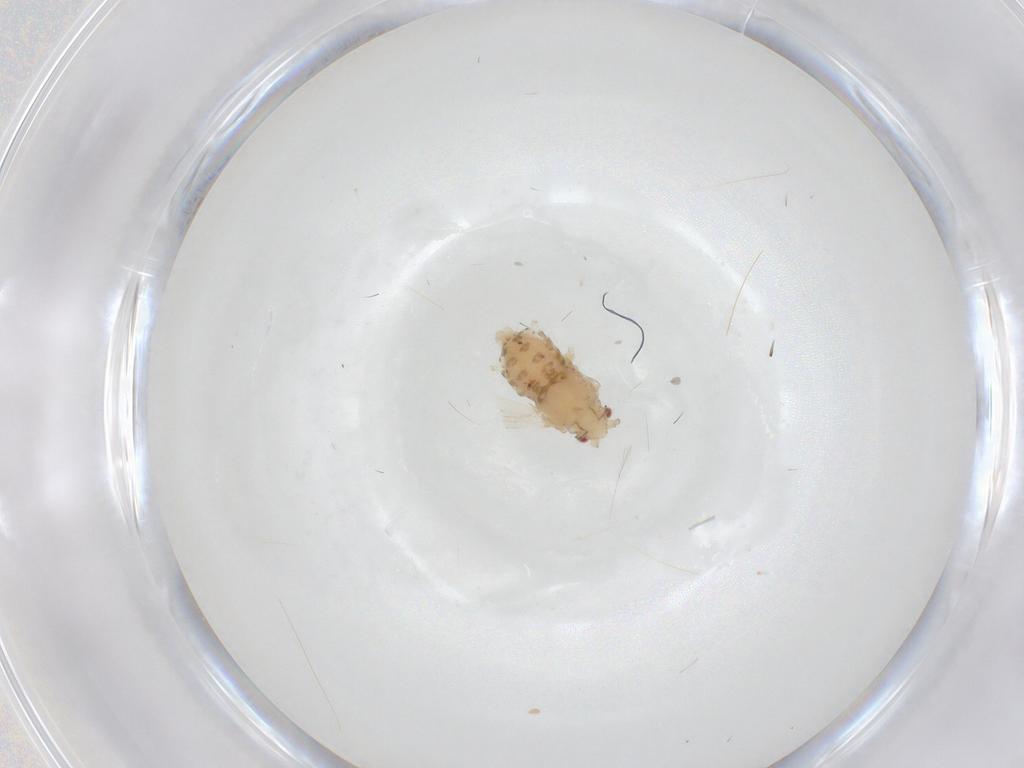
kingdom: Animalia
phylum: Arthropoda
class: Insecta
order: Hemiptera
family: Aphididae
